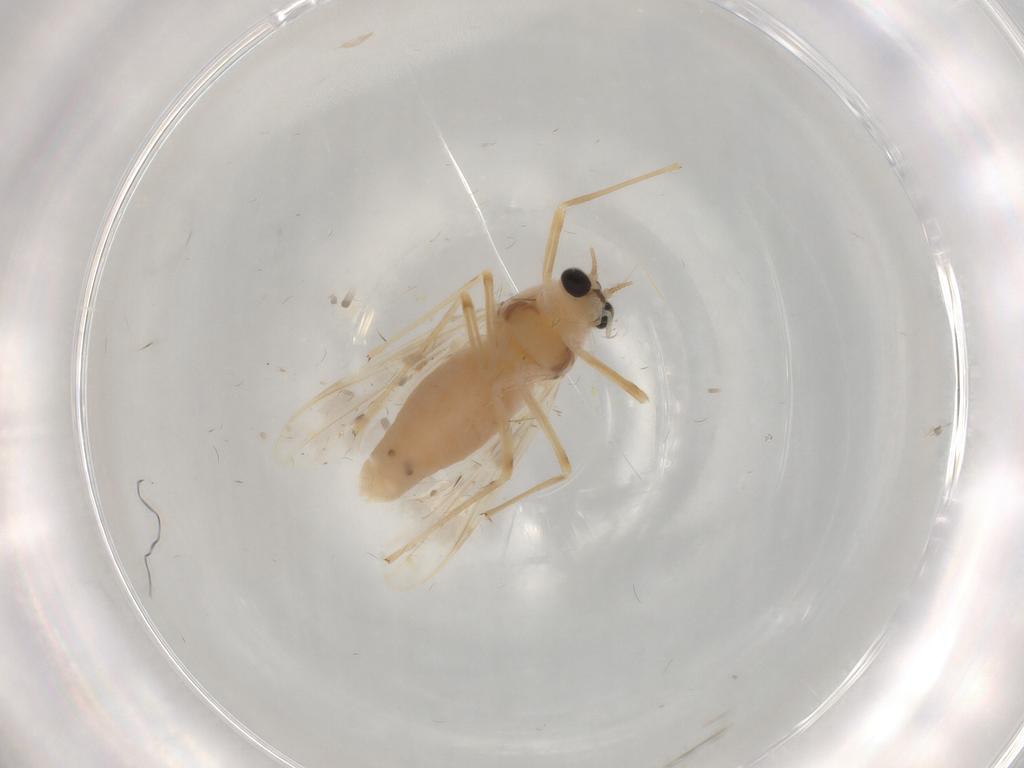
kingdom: Animalia
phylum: Arthropoda
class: Insecta
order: Diptera
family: Chironomidae
